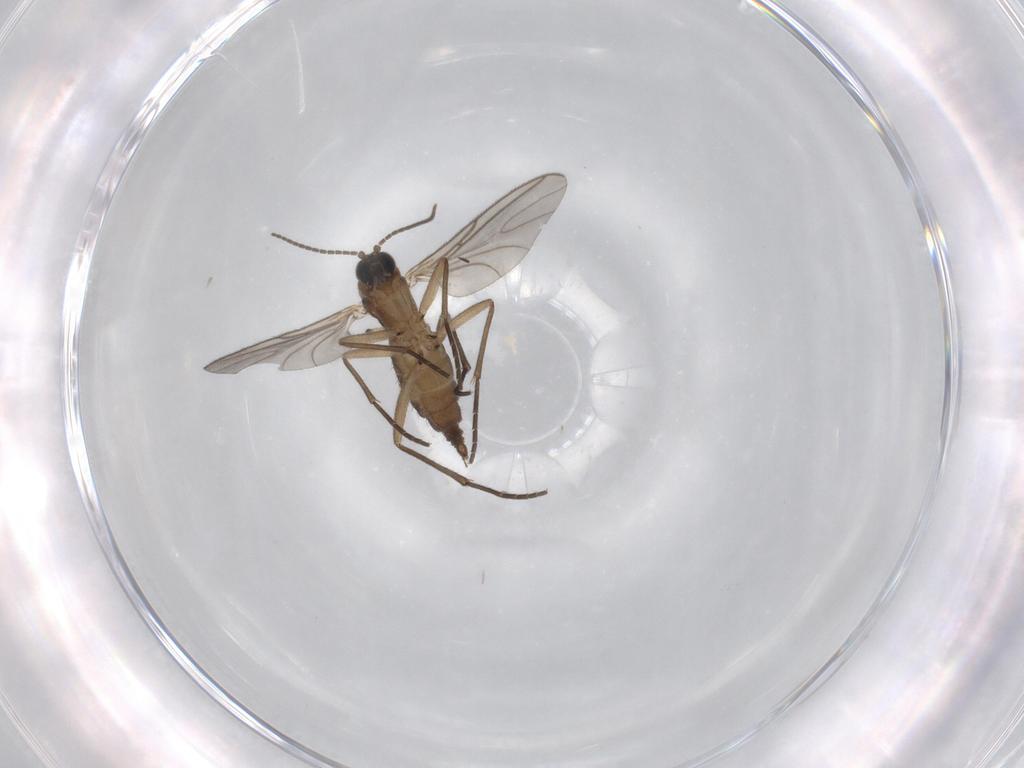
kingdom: Animalia
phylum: Arthropoda
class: Insecta
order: Diptera
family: Sciaridae
